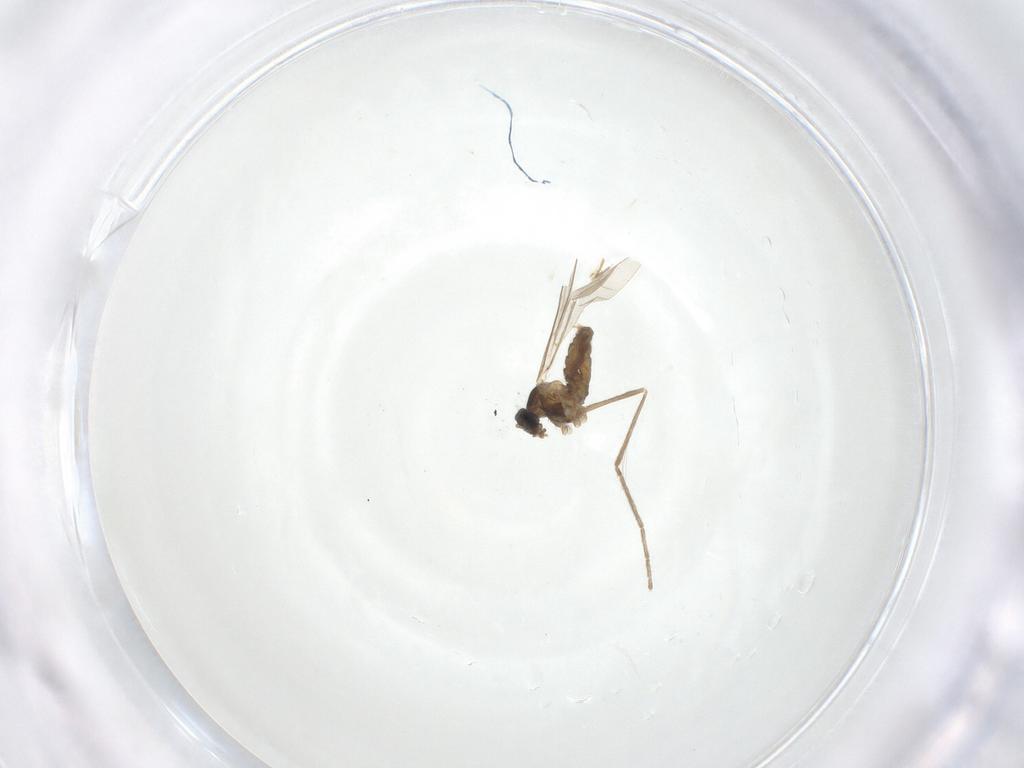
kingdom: Animalia
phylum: Arthropoda
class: Insecta
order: Diptera
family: Cecidomyiidae
